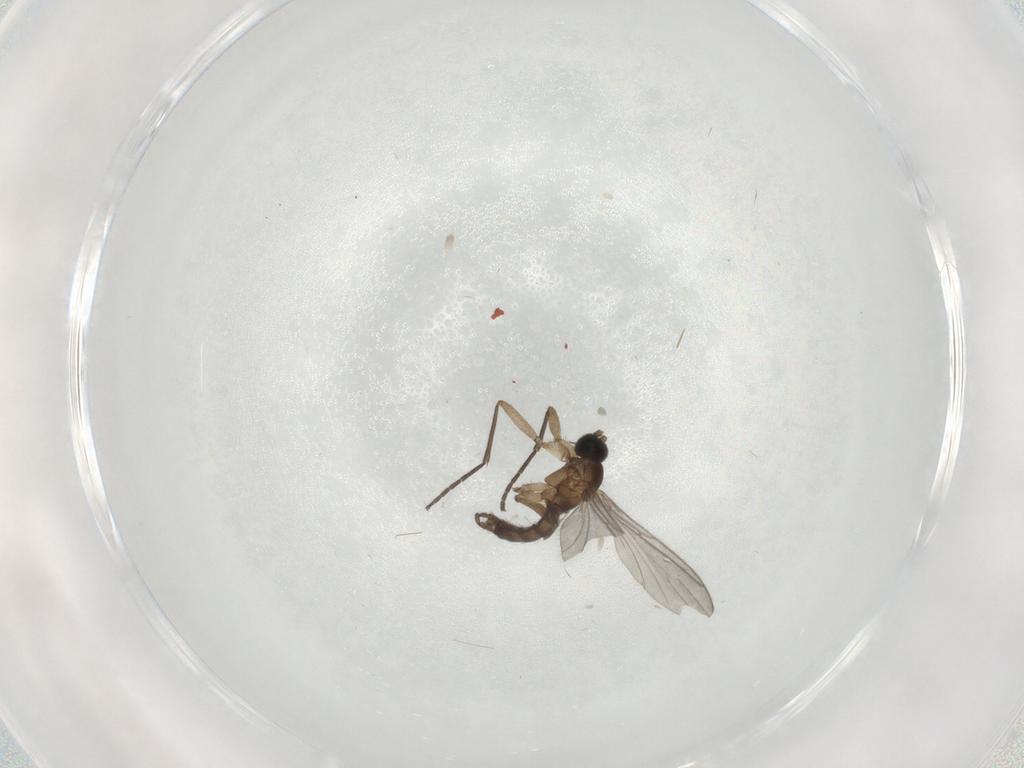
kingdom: Animalia
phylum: Arthropoda
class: Insecta
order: Diptera
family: Sciaridae
